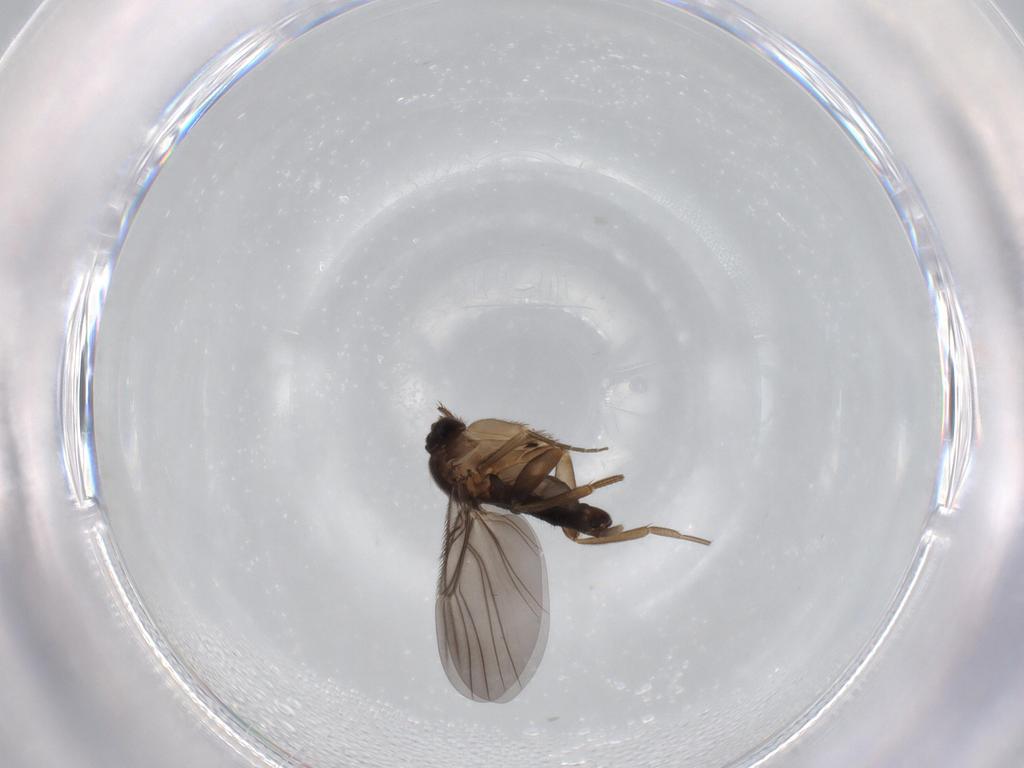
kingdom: Animalia
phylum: Arthropoda
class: Insecta
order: Diptera
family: Phoridae
